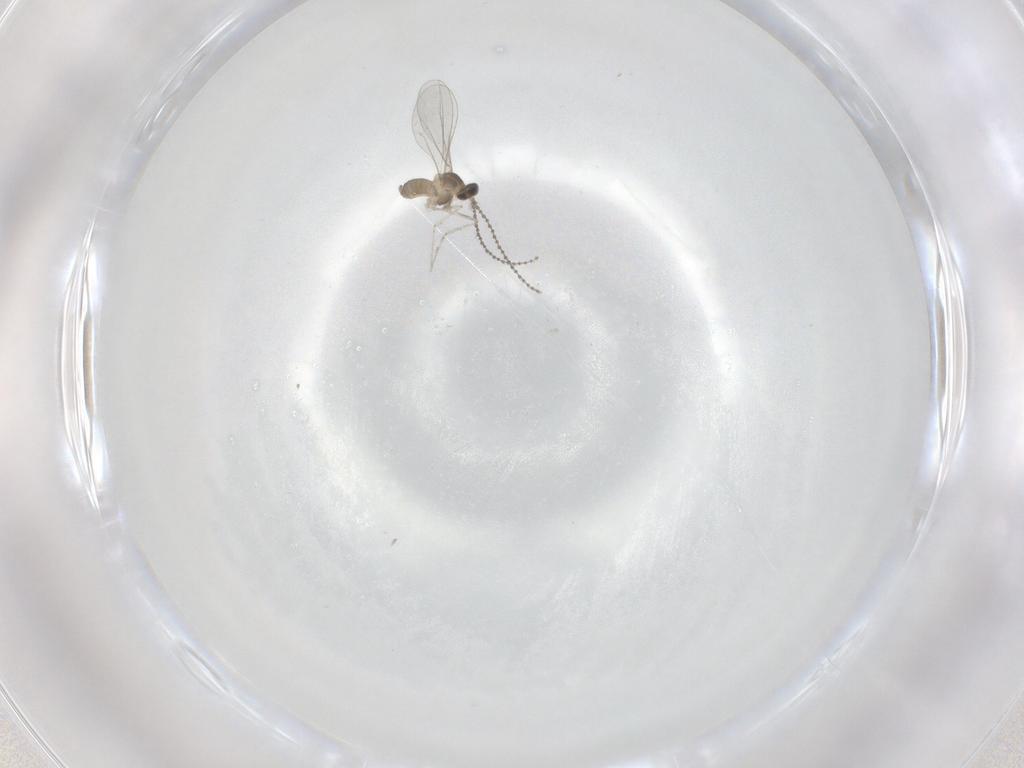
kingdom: Animalia
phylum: Arthropoda
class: Insecta
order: Diptera
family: Cecidomyiidae
